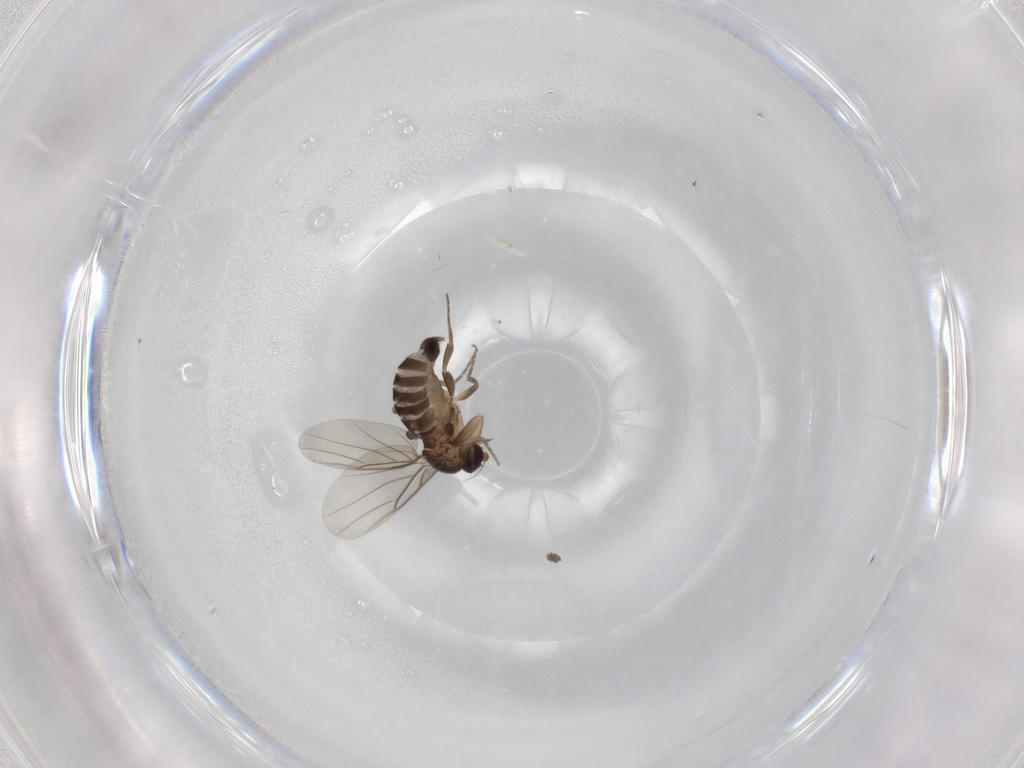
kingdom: Animalia
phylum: Arthropoda
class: Insecta
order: Diptera
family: Phoridae
